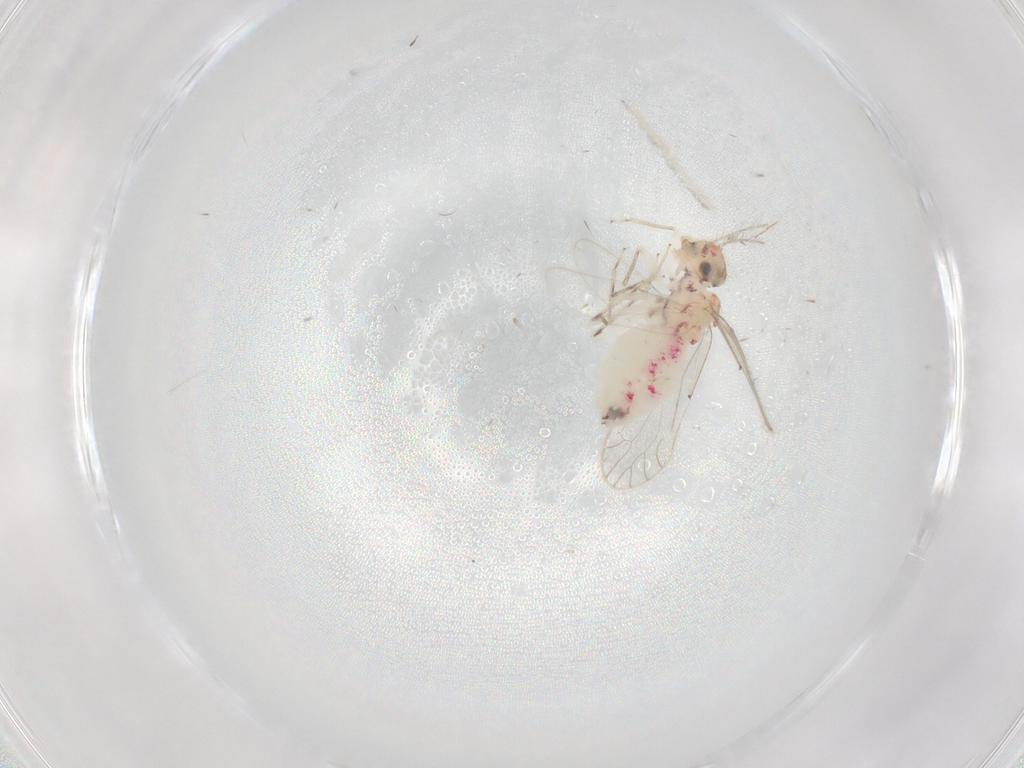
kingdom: Animalia
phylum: Arthropoda
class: Insecta
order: Psocodea
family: Caeciliusidae
